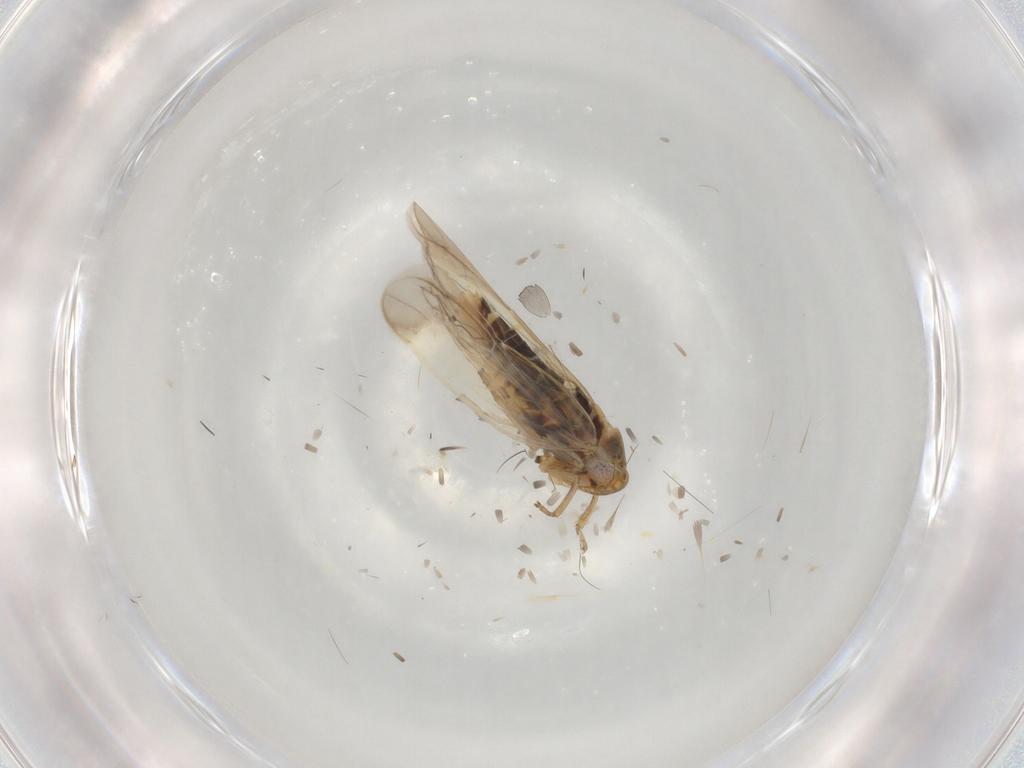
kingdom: Animalia
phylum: Arthropoda
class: Insecta
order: Hemiptera
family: Cicadellidae
